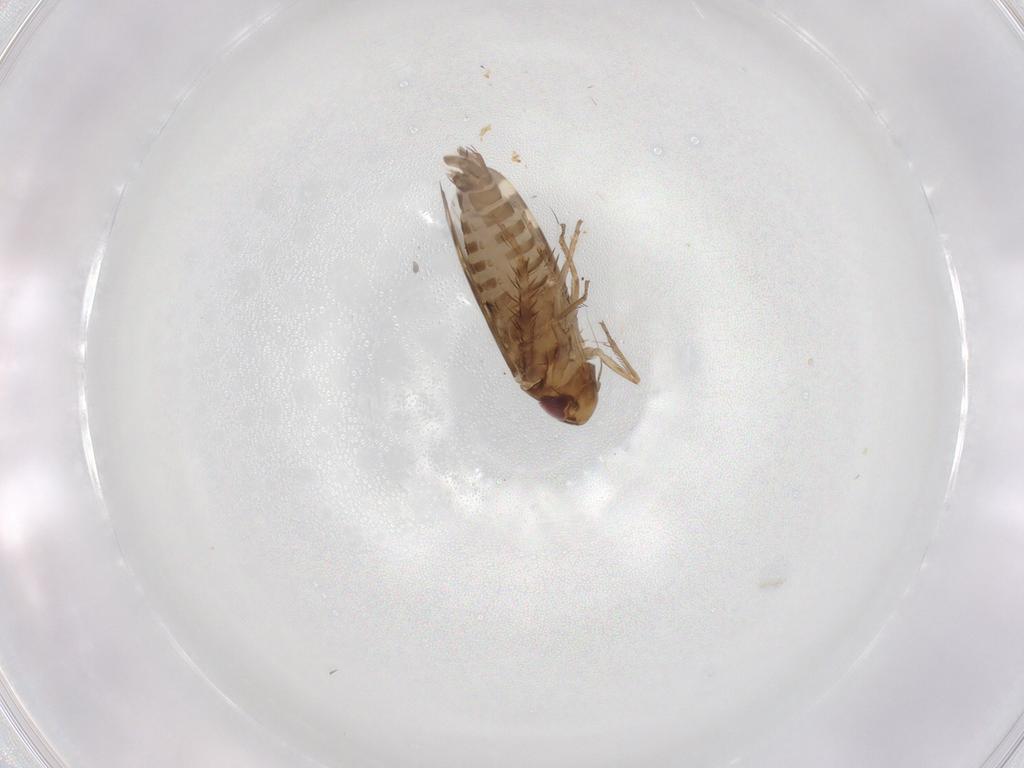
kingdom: Animalia
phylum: Arthropoda
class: Insecta
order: Hemiptera
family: Cicadellidae
